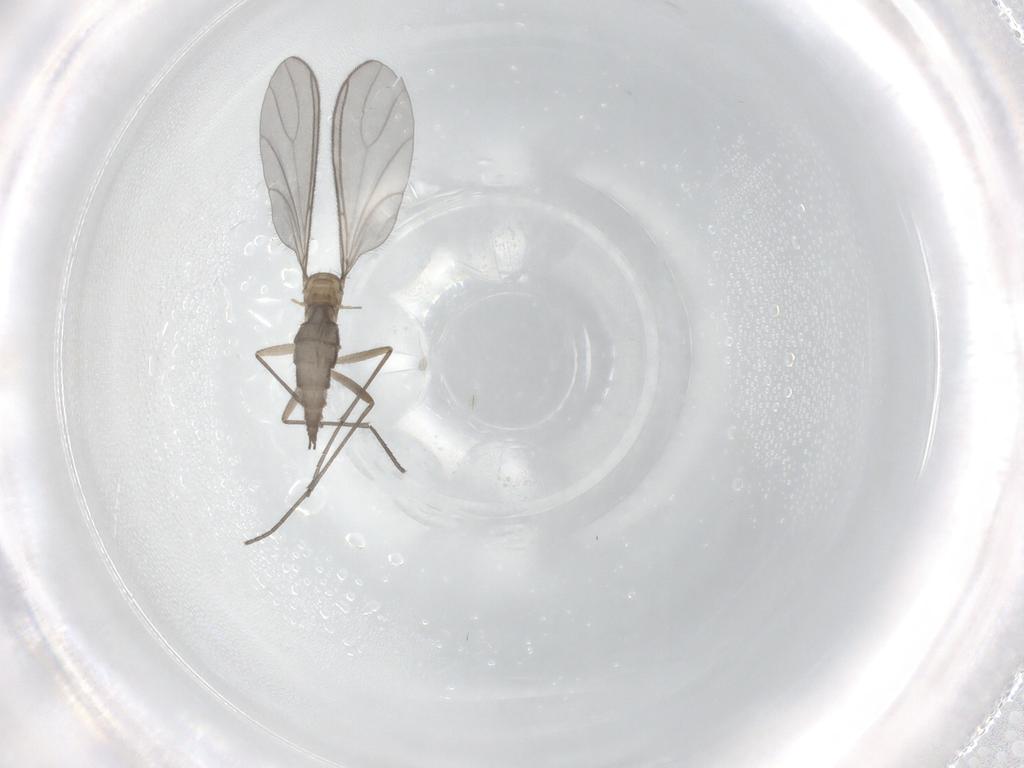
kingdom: Animalia
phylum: Arthropoda
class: Insecta
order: Diptera
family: Sciaridae
